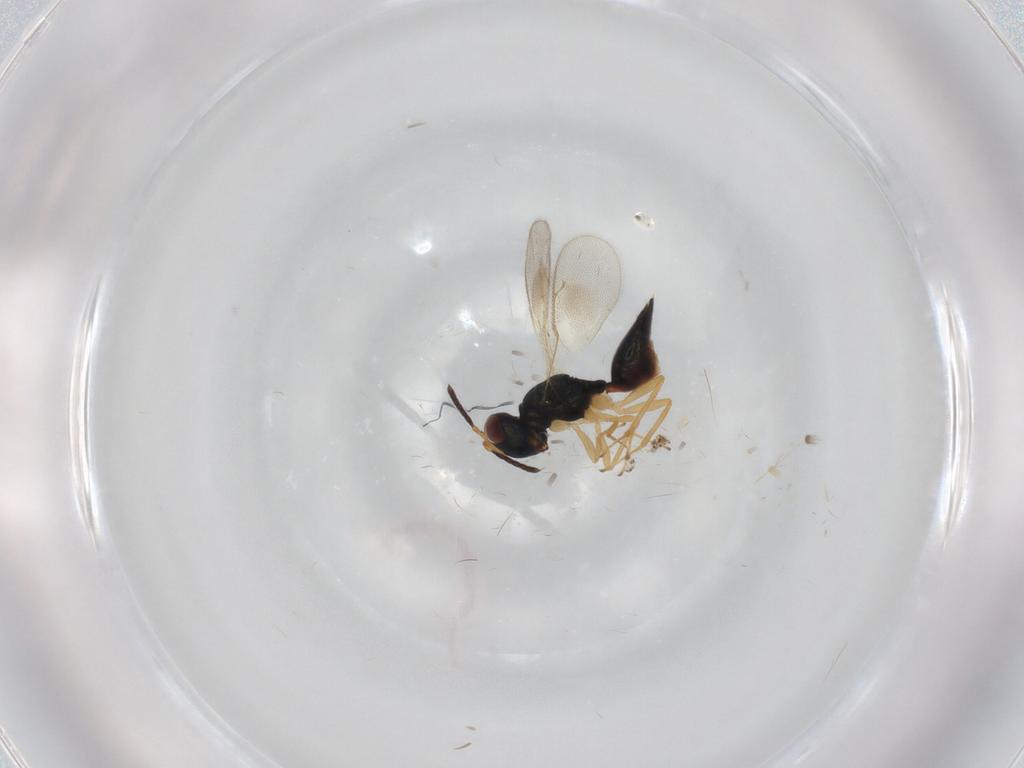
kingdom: Animalia
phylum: Arthropoda
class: Insecta
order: Hymenoptera
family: Pteromalidae
